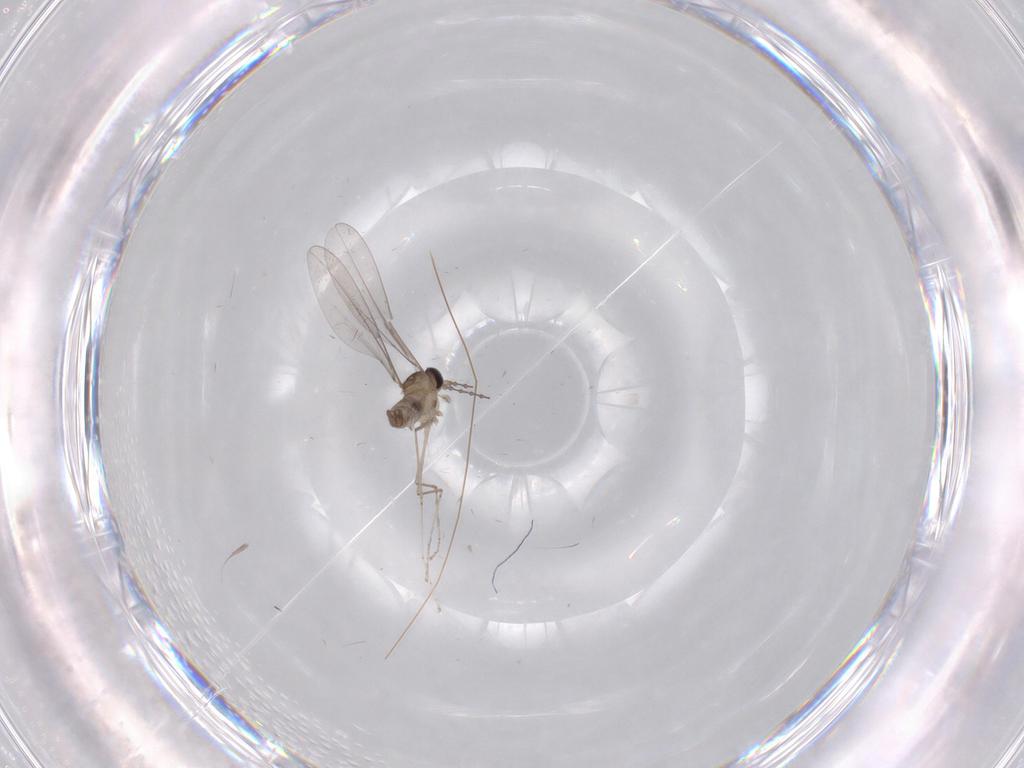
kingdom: Animalia
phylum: Arthropoda
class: Insecta
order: Diptera
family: Cecidomyiidae
